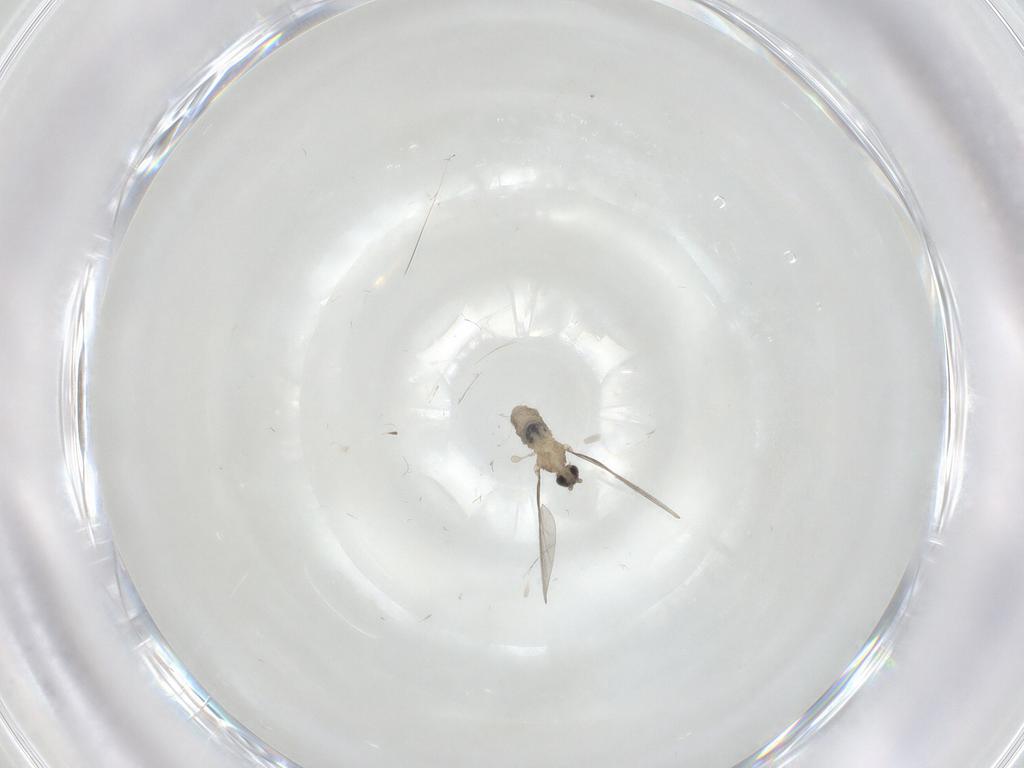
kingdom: Animalia
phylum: Arthropoda
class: Insecta
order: Diptera
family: Cecidomyiidae
